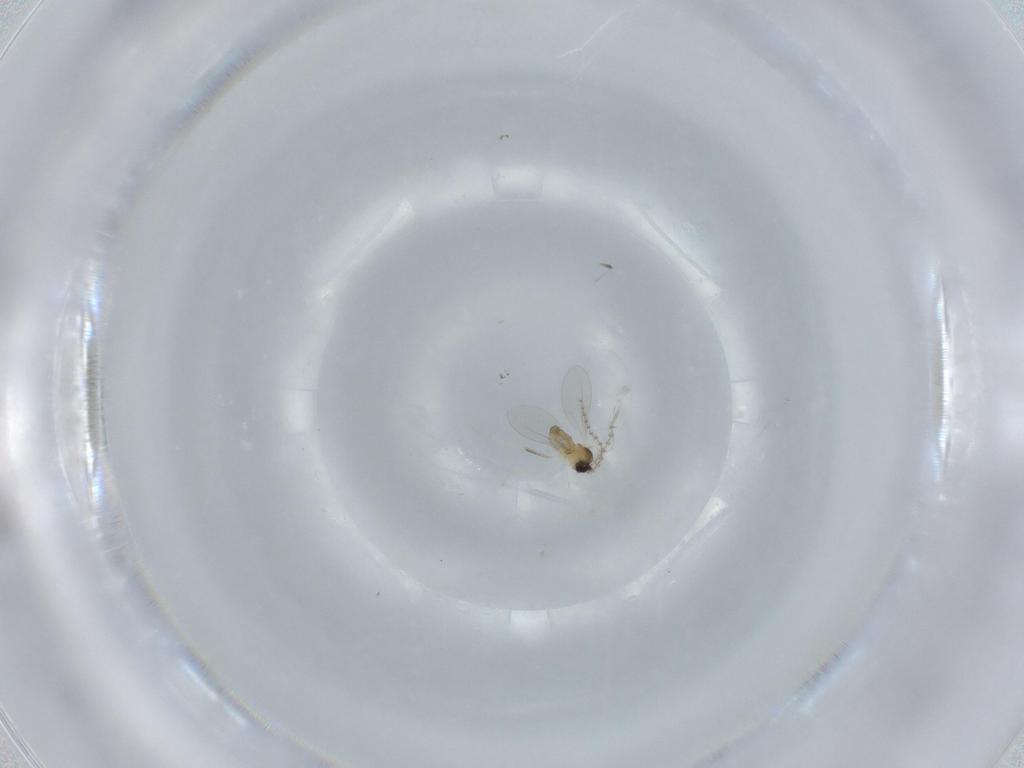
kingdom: Animalia
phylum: Arthropoda
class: Insecta
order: Diptera
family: Cecidomyiidae
